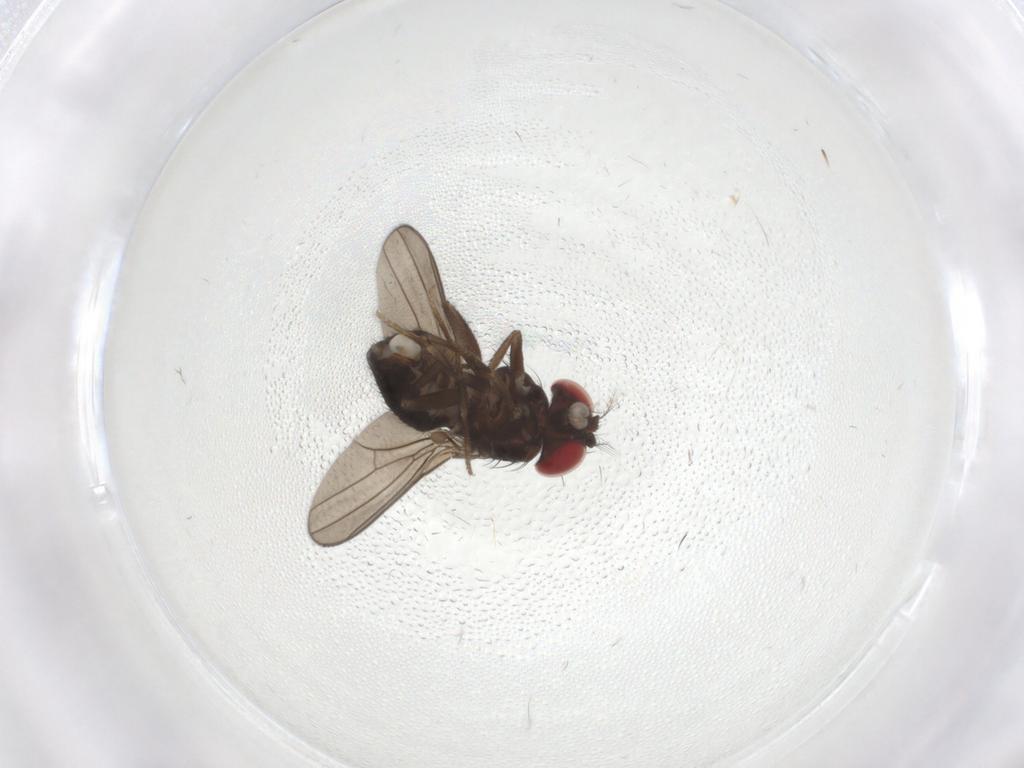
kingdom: Animalia
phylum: Arthropoda
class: Insecta
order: Diptera
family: Drosophilidae
